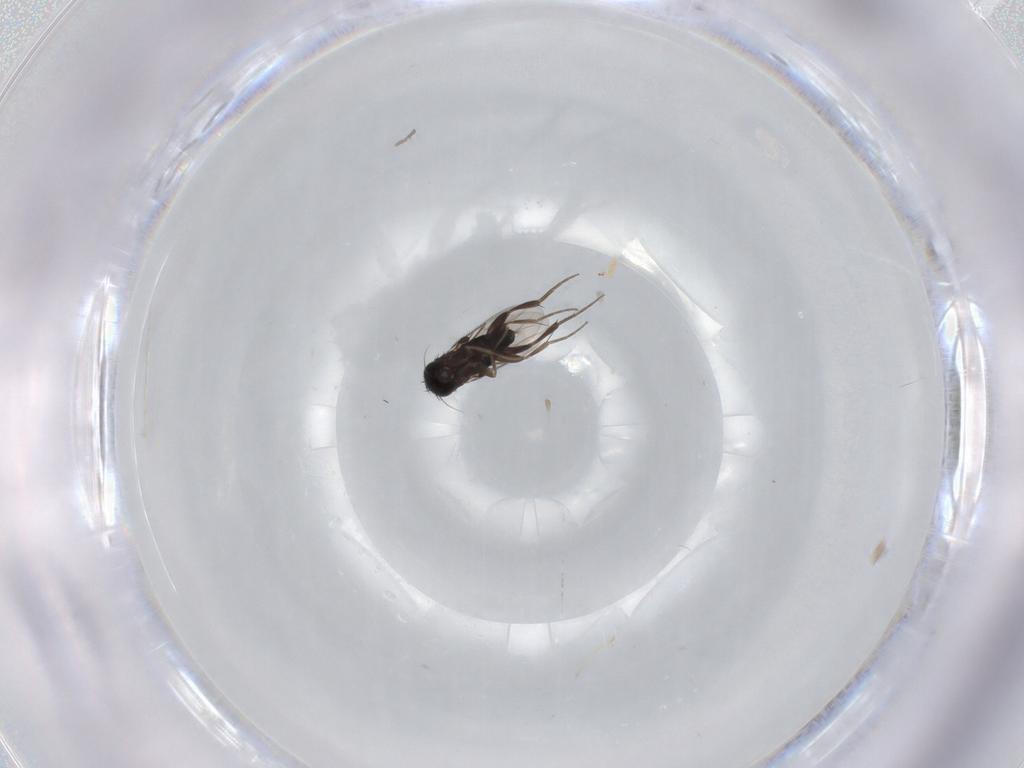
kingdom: Animalia
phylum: Arthropoda
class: Insecta
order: Diptera
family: Phoridae
